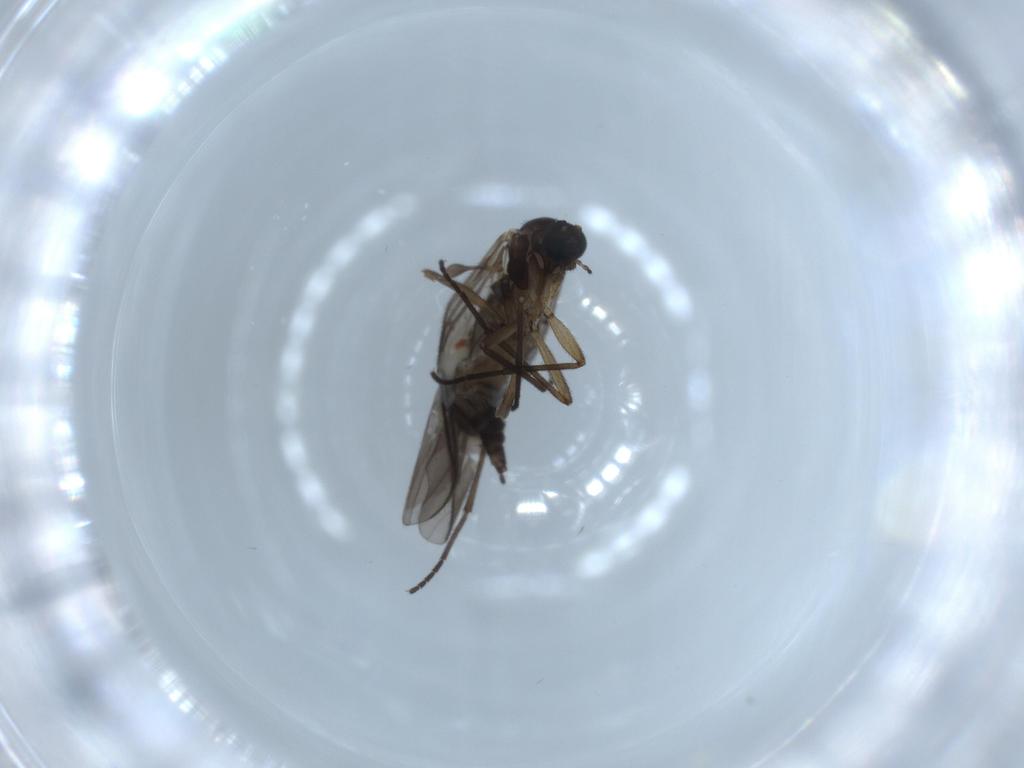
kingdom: Animalia
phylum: Arthropoda
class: Insecta
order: Diptera
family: Sciaridae
